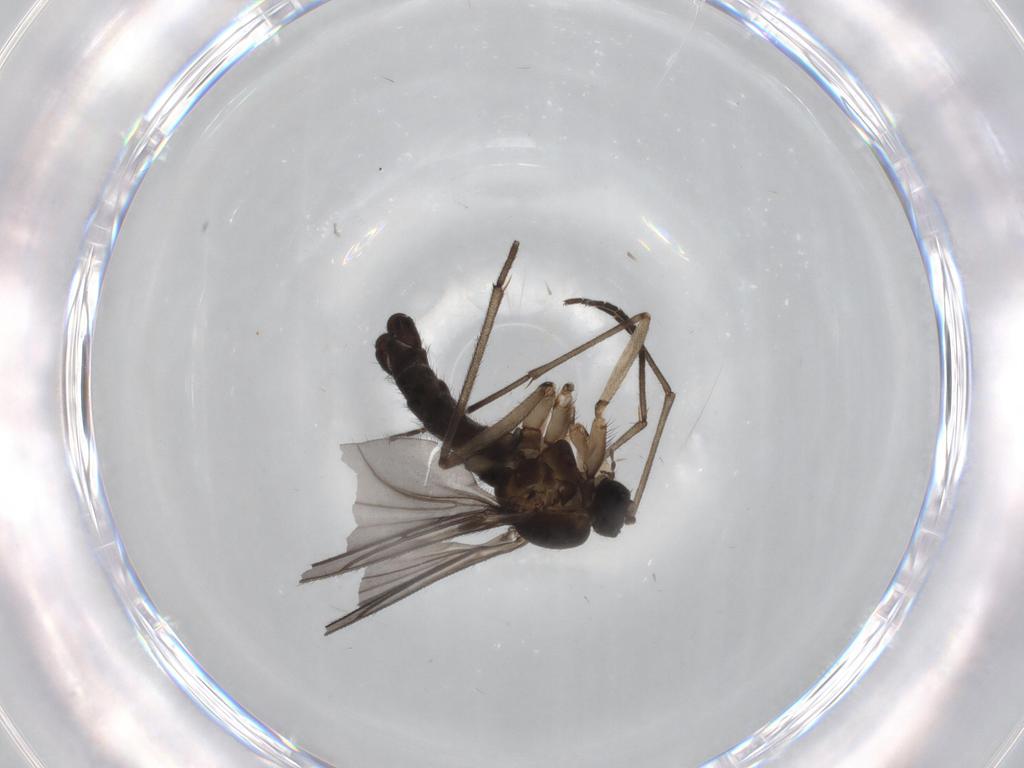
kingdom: Animalia
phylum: Arthropoda
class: Insecta
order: Diptera
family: Sciaridae
